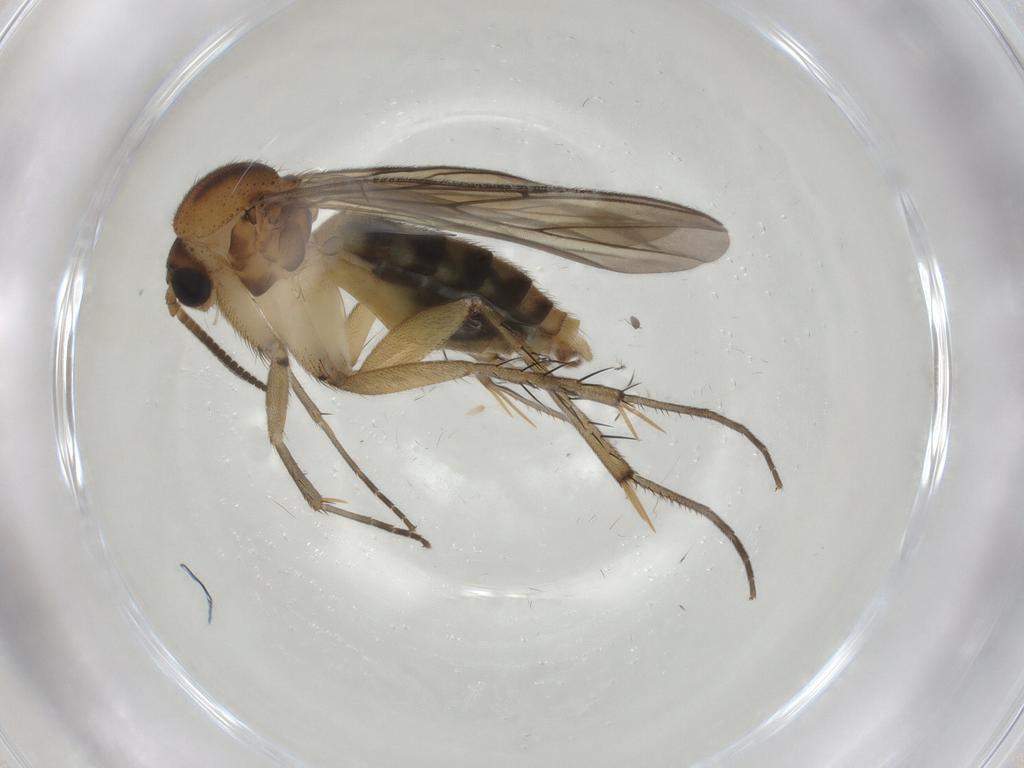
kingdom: Animalia
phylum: Arthropoda
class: Insecta
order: Diptera
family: Mycetophilidae
